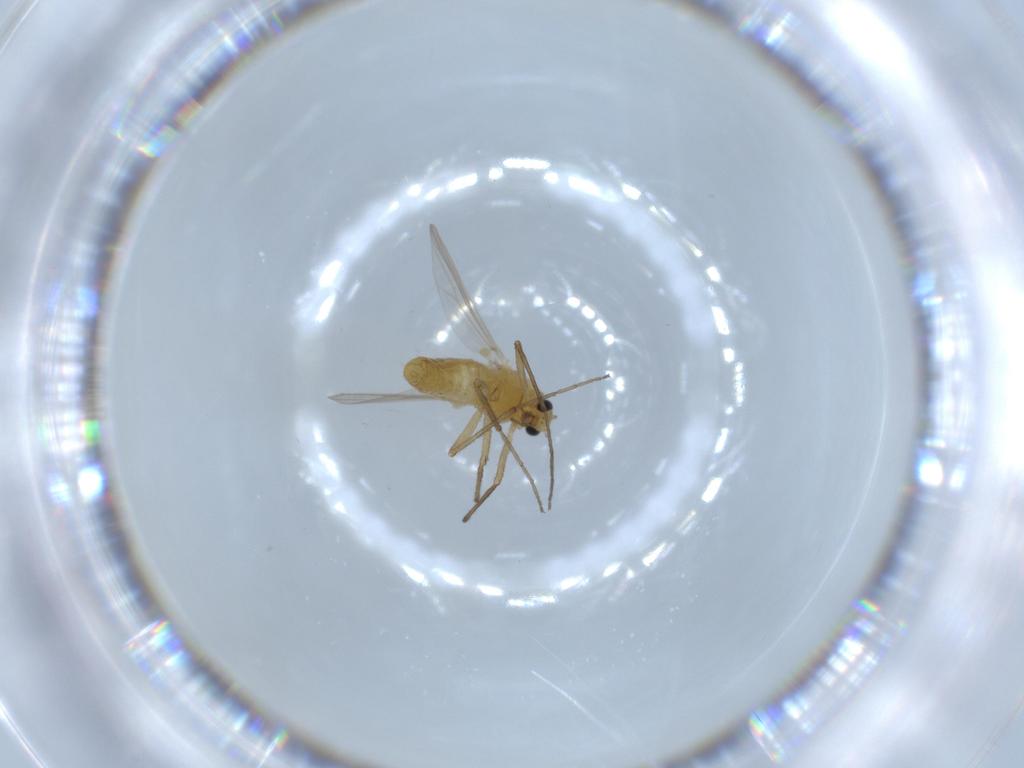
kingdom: Animalia
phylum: Arthropoda
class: Insecta
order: Diptera
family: Chironomidae
